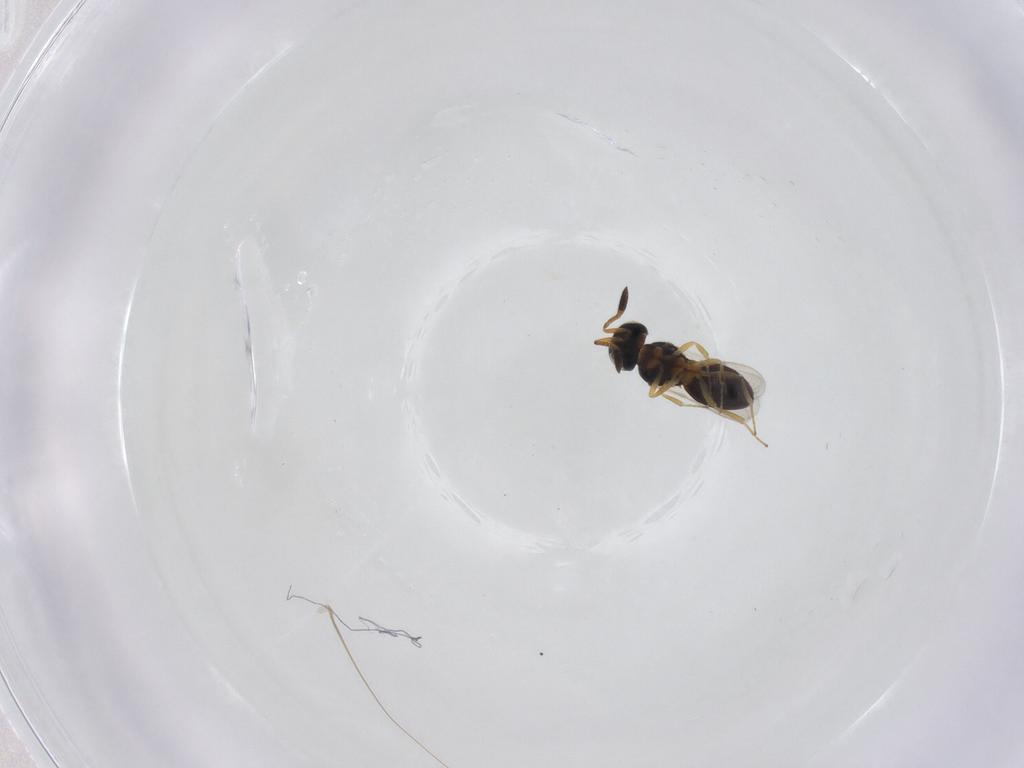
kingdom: Animalia
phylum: Arthropoda
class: Insecta
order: Hymenoptera
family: Scelionidae
